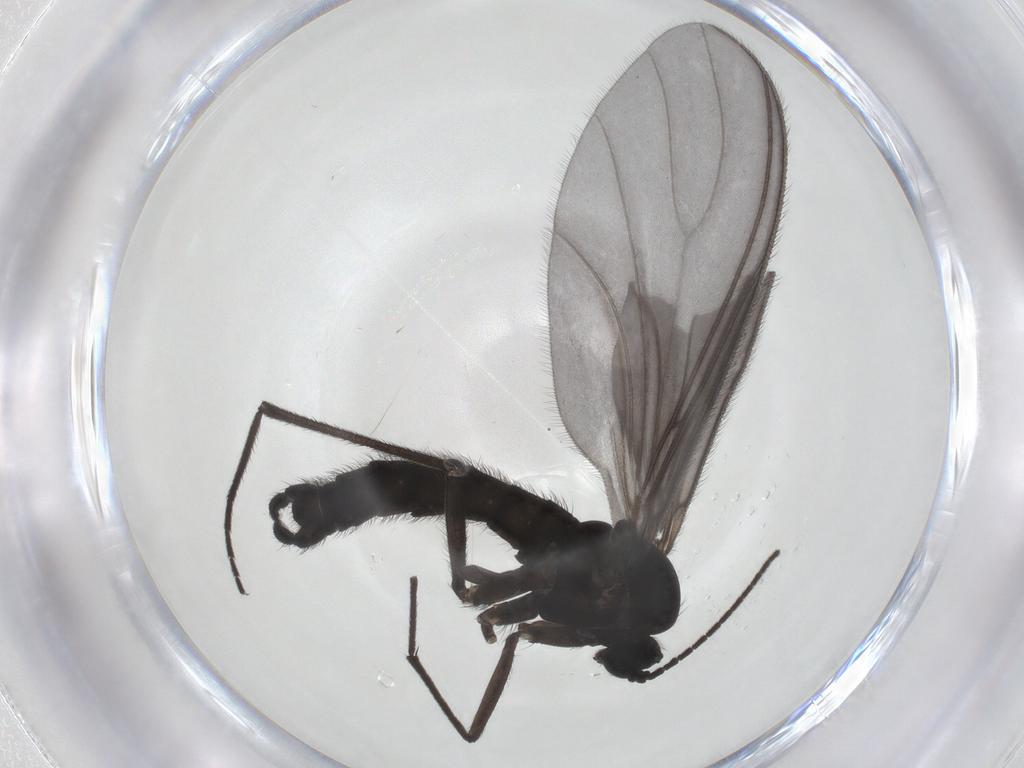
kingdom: Animalia
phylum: Arthropoda
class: Insecta
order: Diptera
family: Sciaridae
